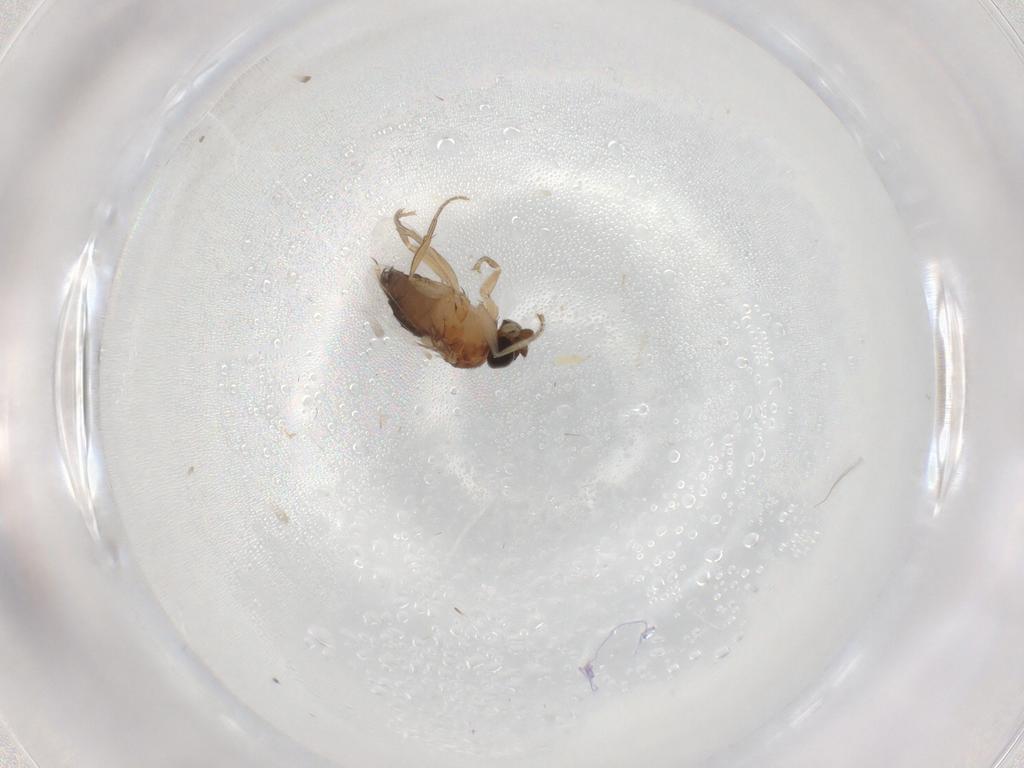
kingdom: Animalia
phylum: Arthropoda
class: Insecta
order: Diptera
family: Ceratopogonidae
